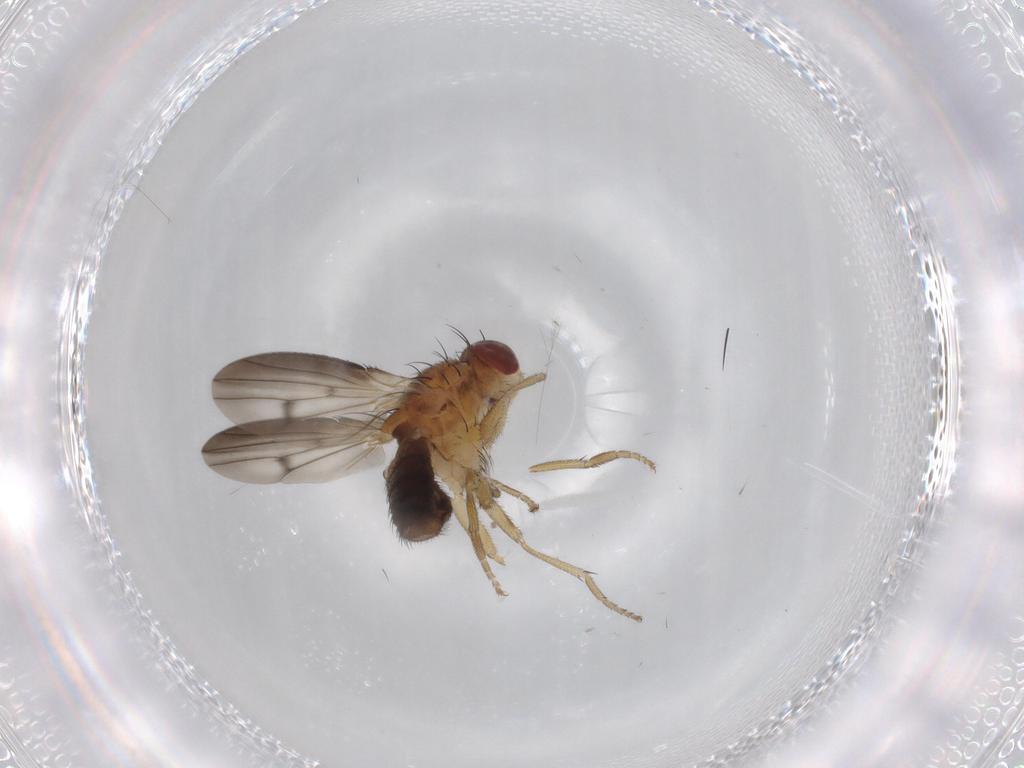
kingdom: Animalia
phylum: Arthropoda
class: Insecta
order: Diptera
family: Heleomyzidae
